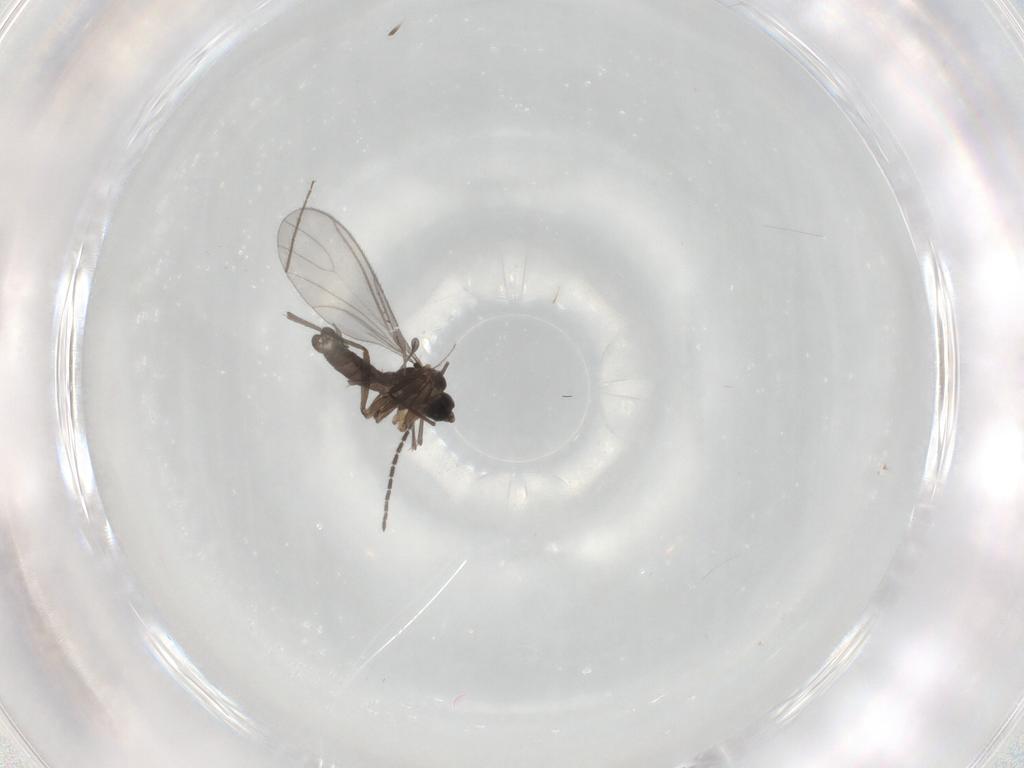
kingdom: Animalia
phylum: Arthropoda
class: Insecta
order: Diptera
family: Sciaridae
